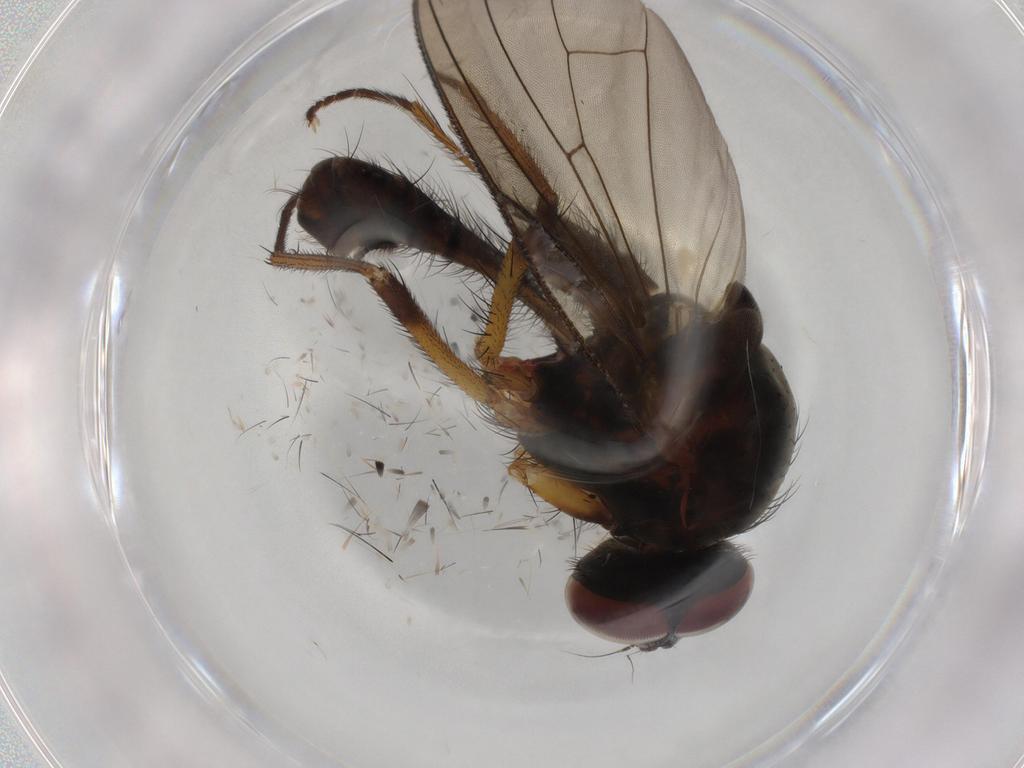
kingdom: Animalia
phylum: Arthropoda
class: Insecta
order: Diptera
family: Anthomyiidae
